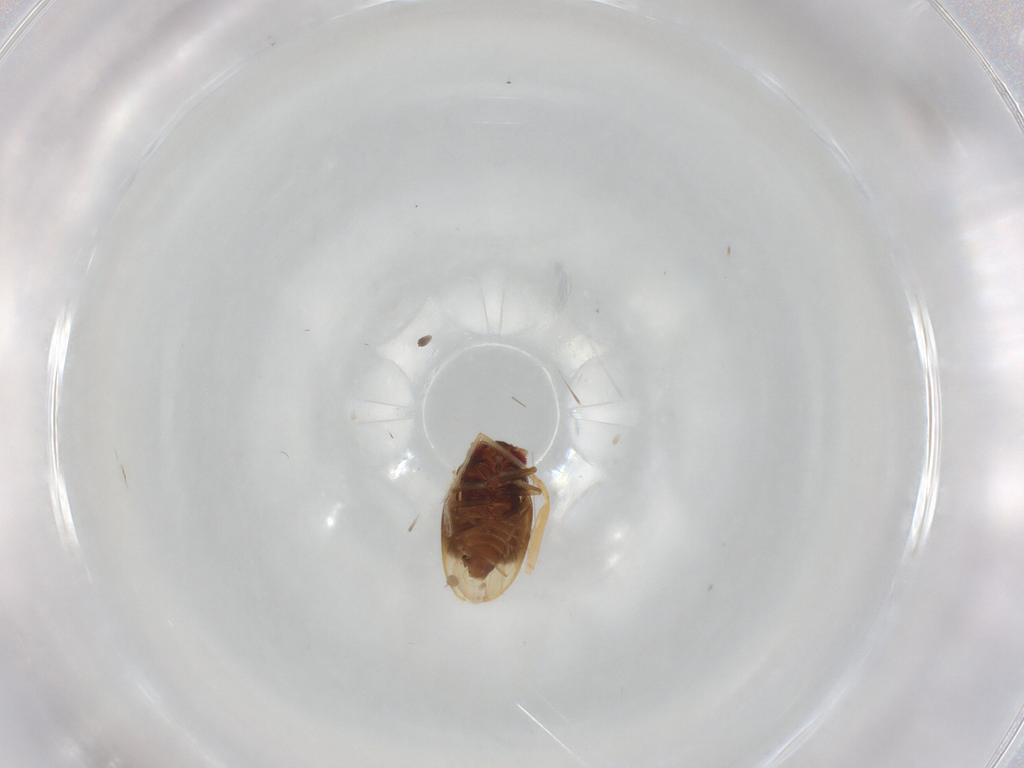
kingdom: Animalia
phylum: Arthropoda
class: Insecta
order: Hemiptera
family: Schizopteridae
